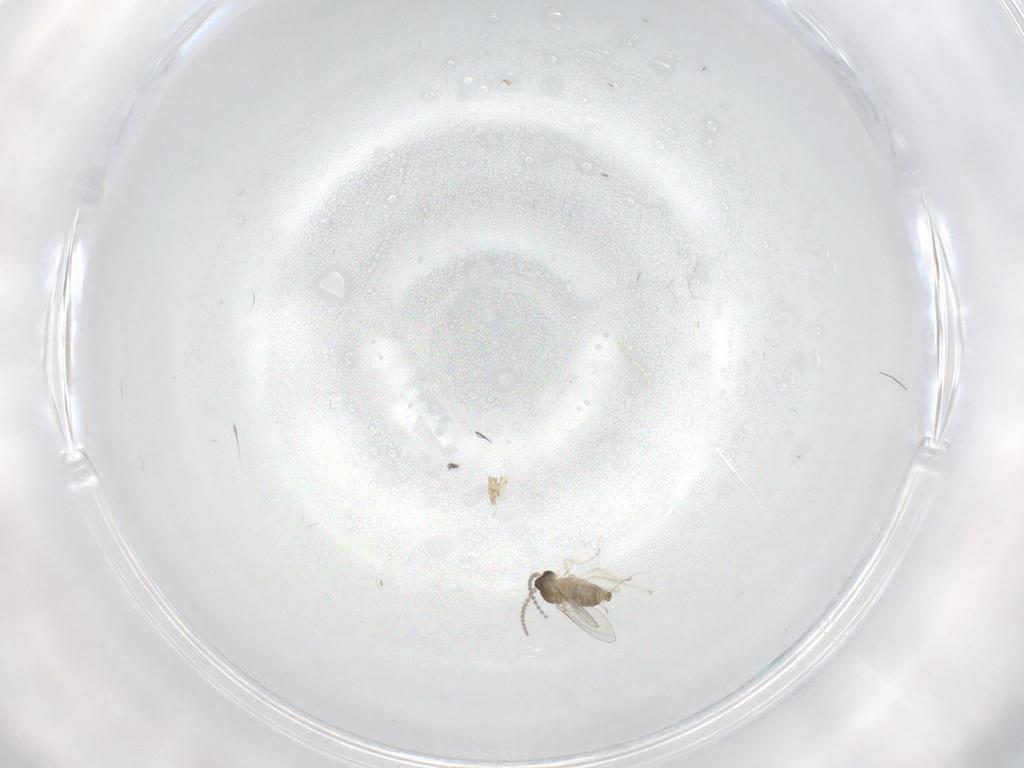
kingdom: Animalia
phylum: Arthropoda
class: Insecta
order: Diptera
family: Cecidomyiidae
